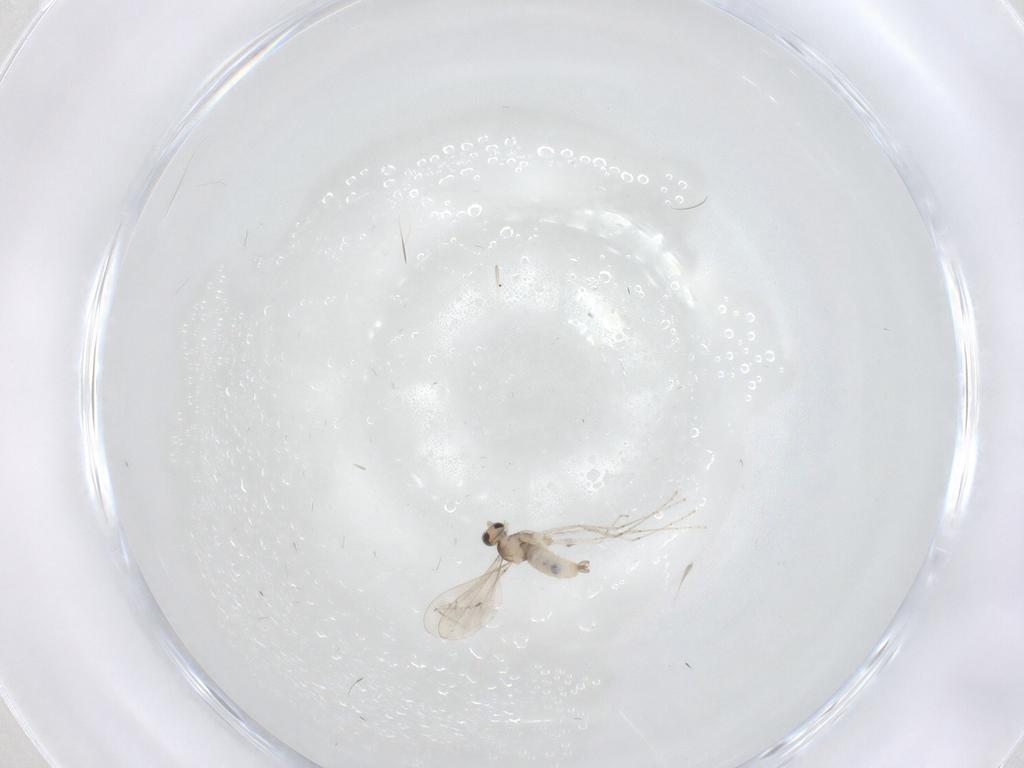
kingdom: Animalia
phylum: Arthropoda
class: Insecta
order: Diptera
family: Cecidomyiidae
